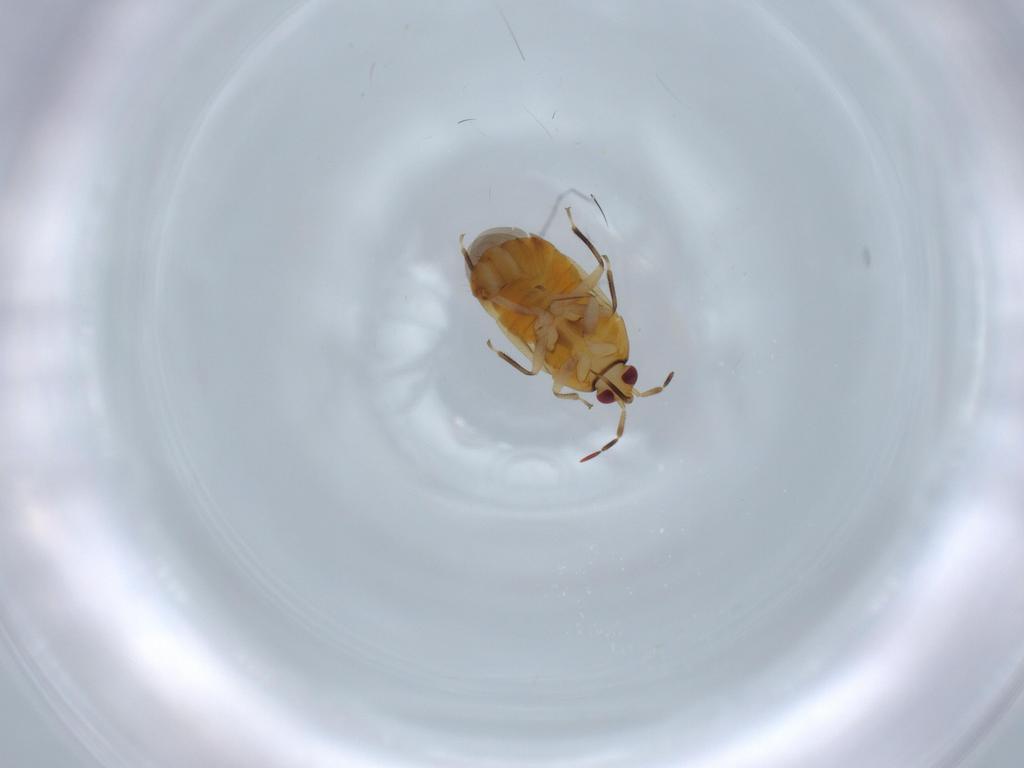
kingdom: Animalia
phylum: Arthropoda
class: Insecta
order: Hemiptera
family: Anthocoridae
